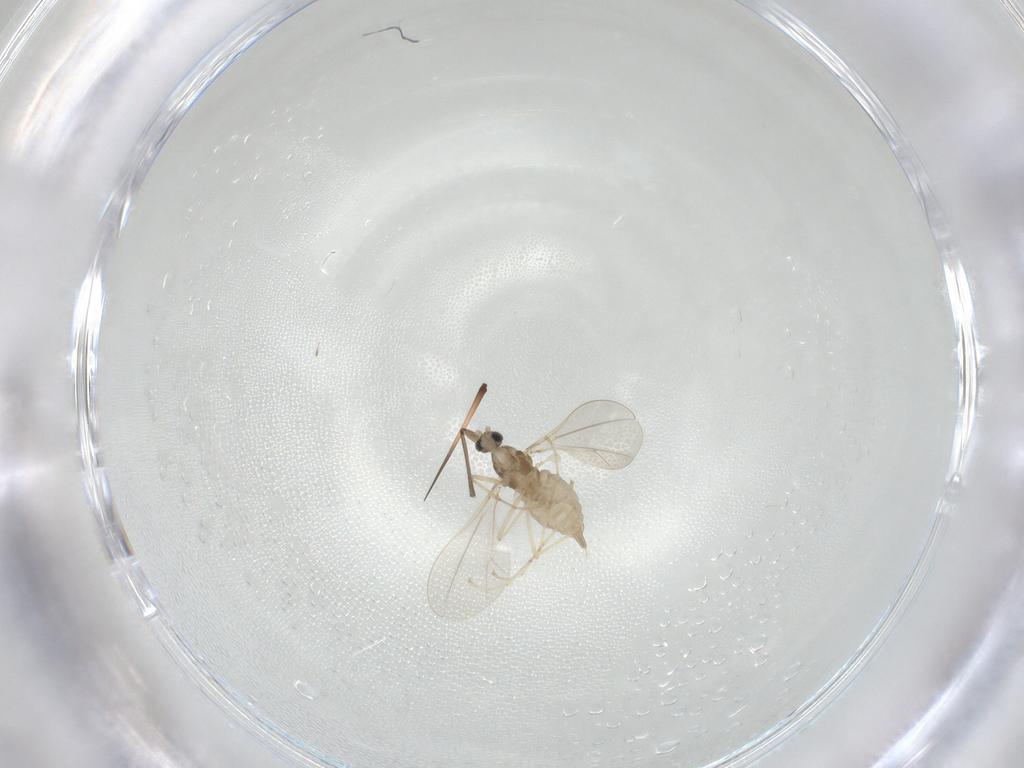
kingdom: Animalia
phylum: Arthropoda
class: Insecta
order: Diptera
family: Cecidomyiidae
